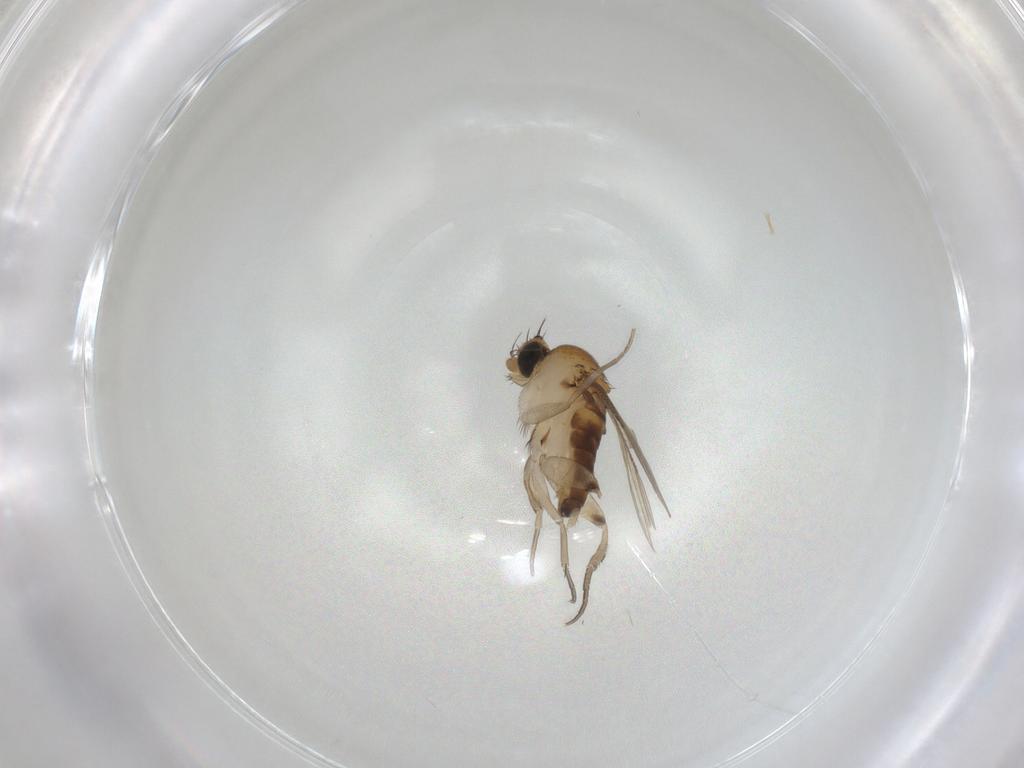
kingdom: Animalia
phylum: Arthropoda
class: Insecta
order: Diptera
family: Phoridae
